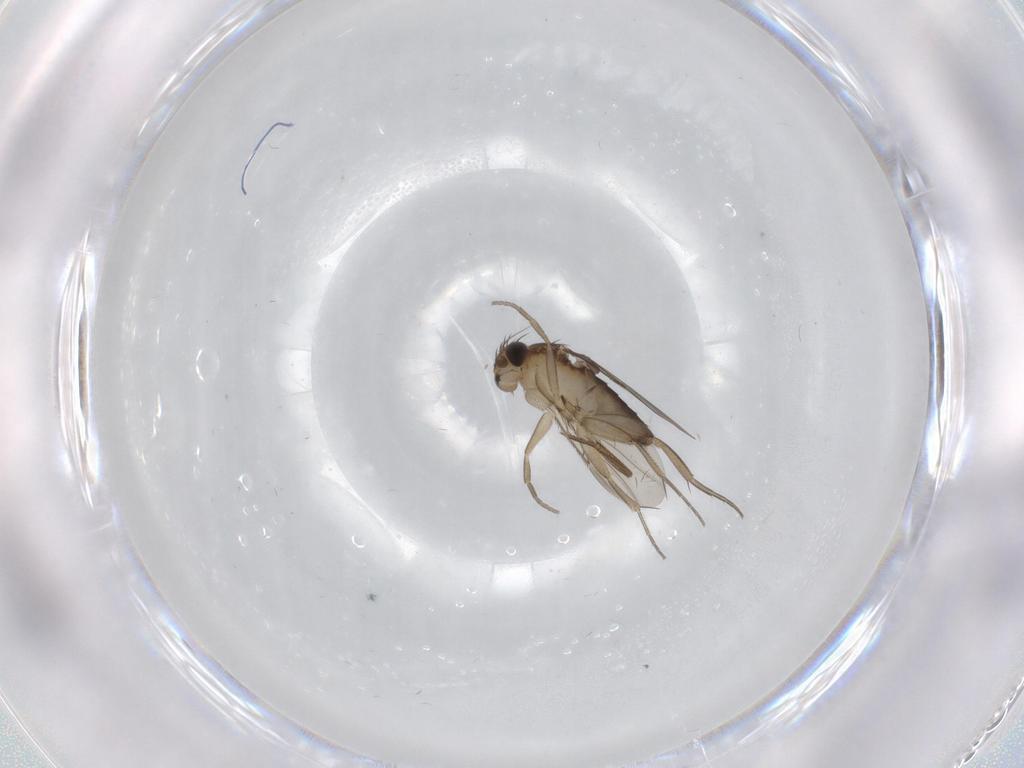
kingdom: Animalia
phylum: Arthropoda
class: Insecta
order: Diptera
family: Phoridae
